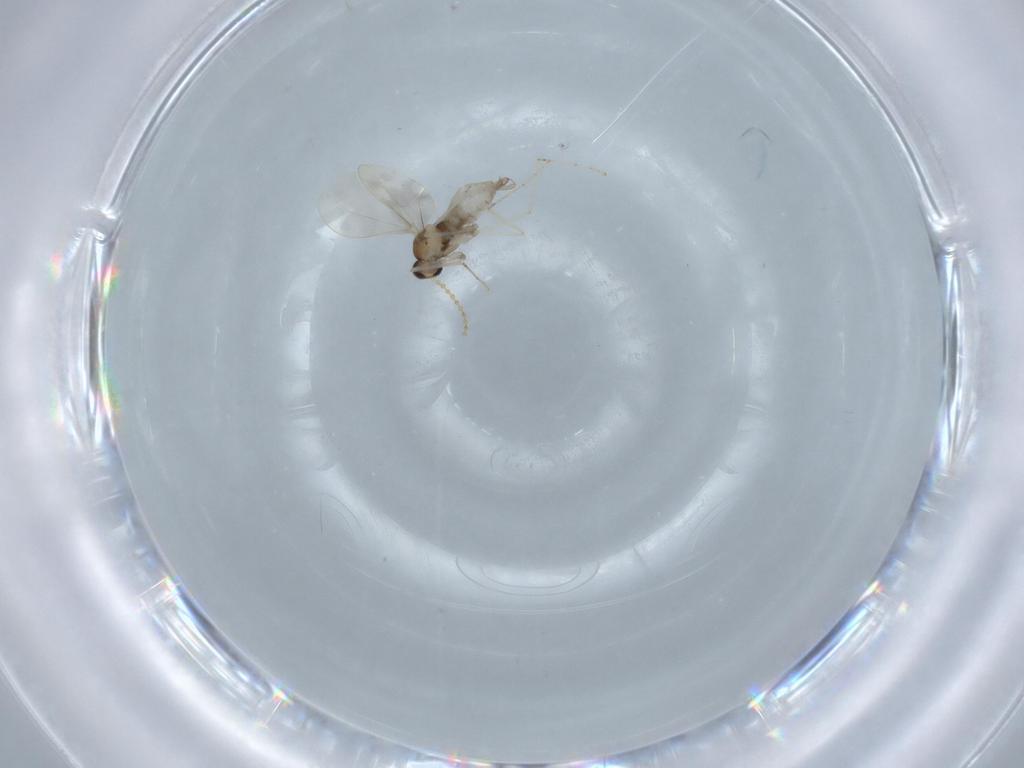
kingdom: Animalia
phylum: Arthropoda
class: Insecta
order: Diptera
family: Cecidomyiidae
